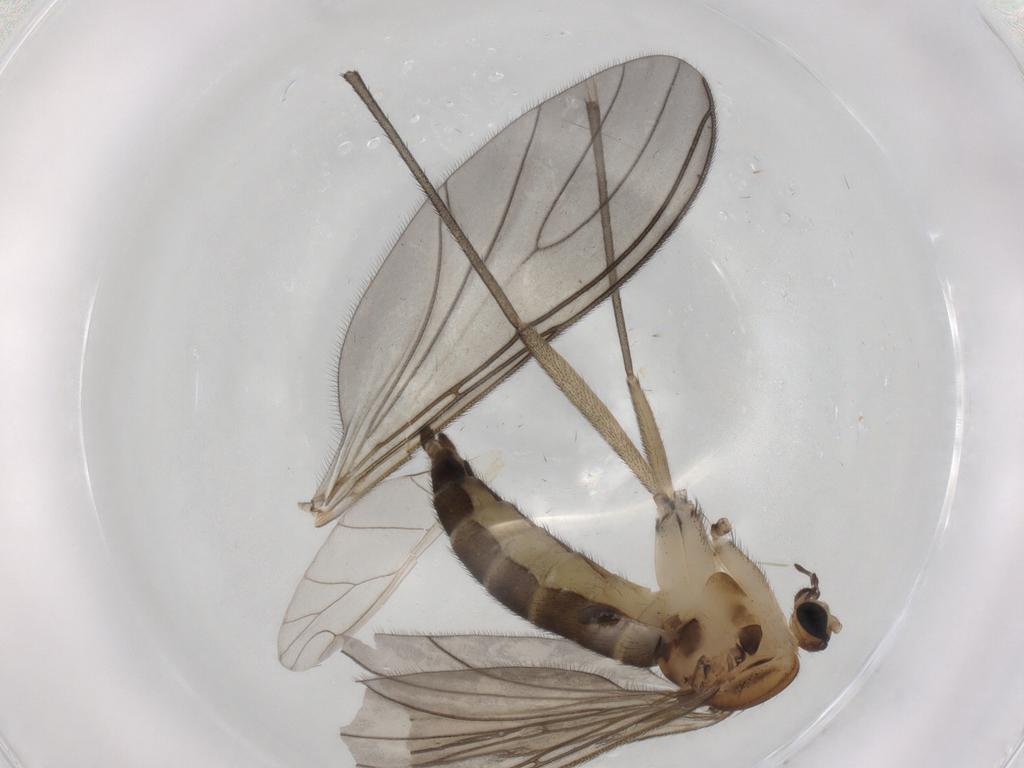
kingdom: Animalia
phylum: Arthropoda
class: Insecta
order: Diptera
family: Sciaridae
